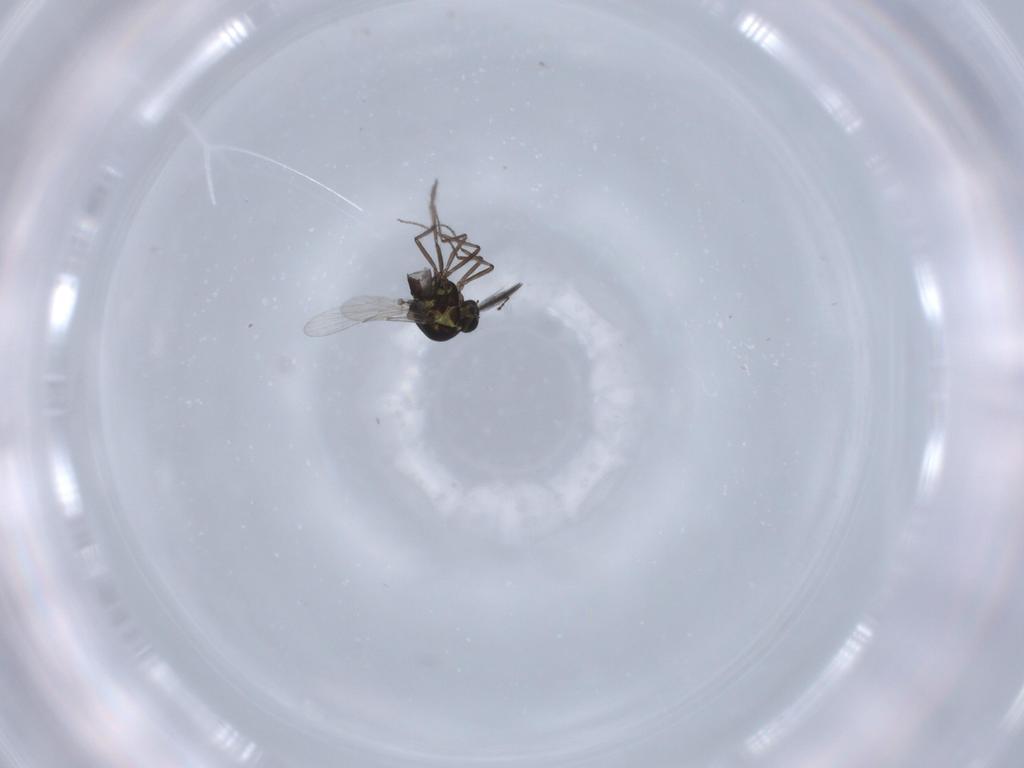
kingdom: Animalia
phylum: Arthropoda
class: Insecta
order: Diptera
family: Ceratopogonidae
